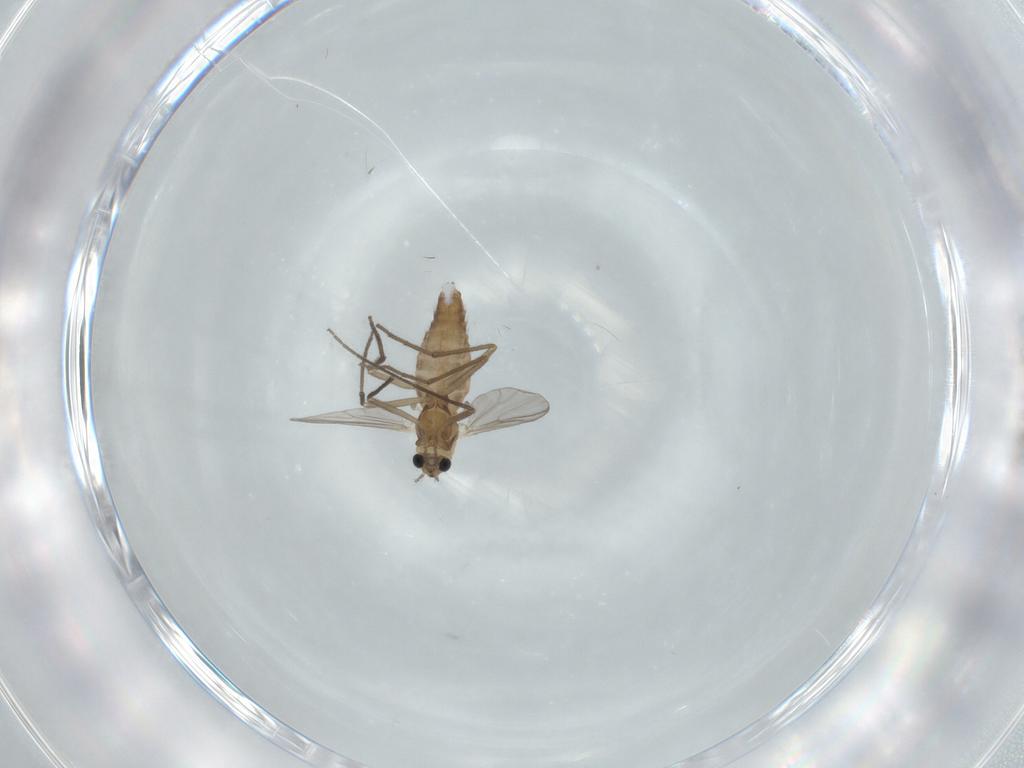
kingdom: Animalia
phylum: Arthropoda
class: Insecta
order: Diptera
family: Chironomidae
